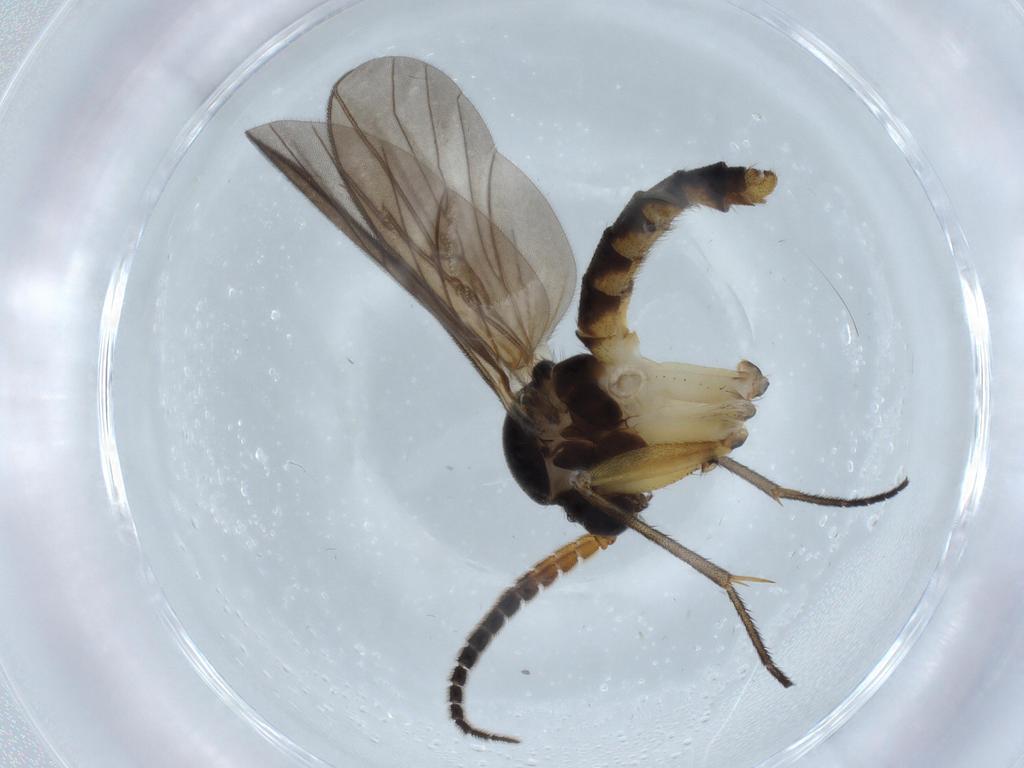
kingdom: Animalia
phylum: Arthropoda
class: Insecta
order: Diptera
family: Cecidomyiidae
